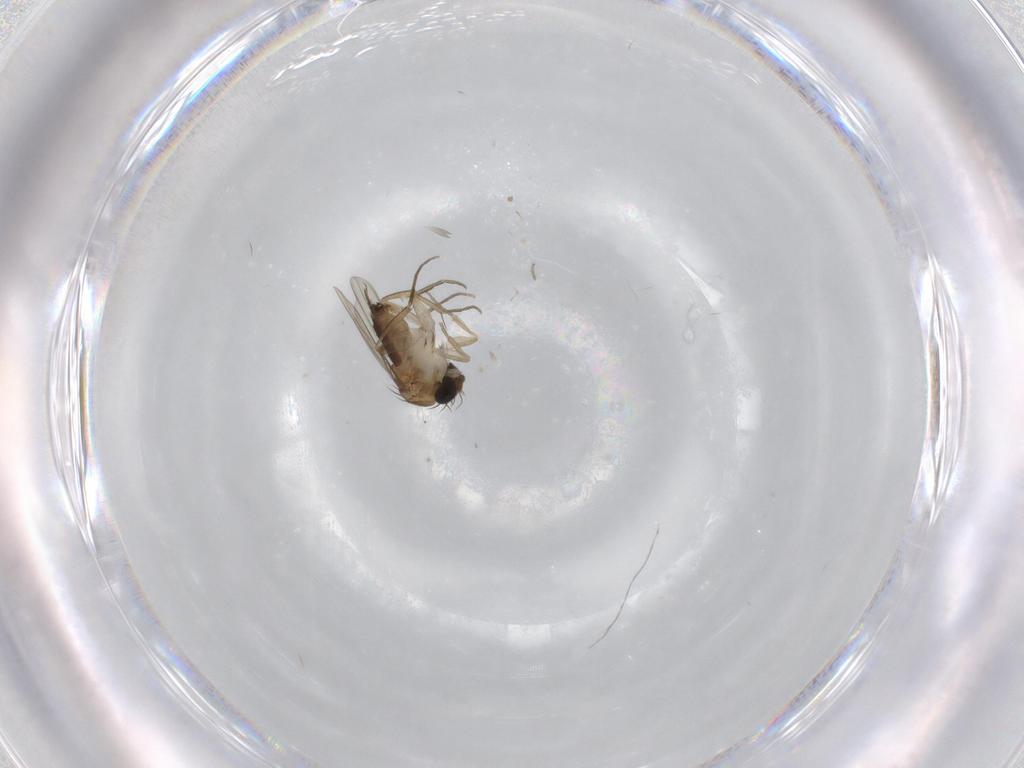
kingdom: Animalia
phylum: Arthropoda
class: Insecta
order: Diptera
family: Phoridae
